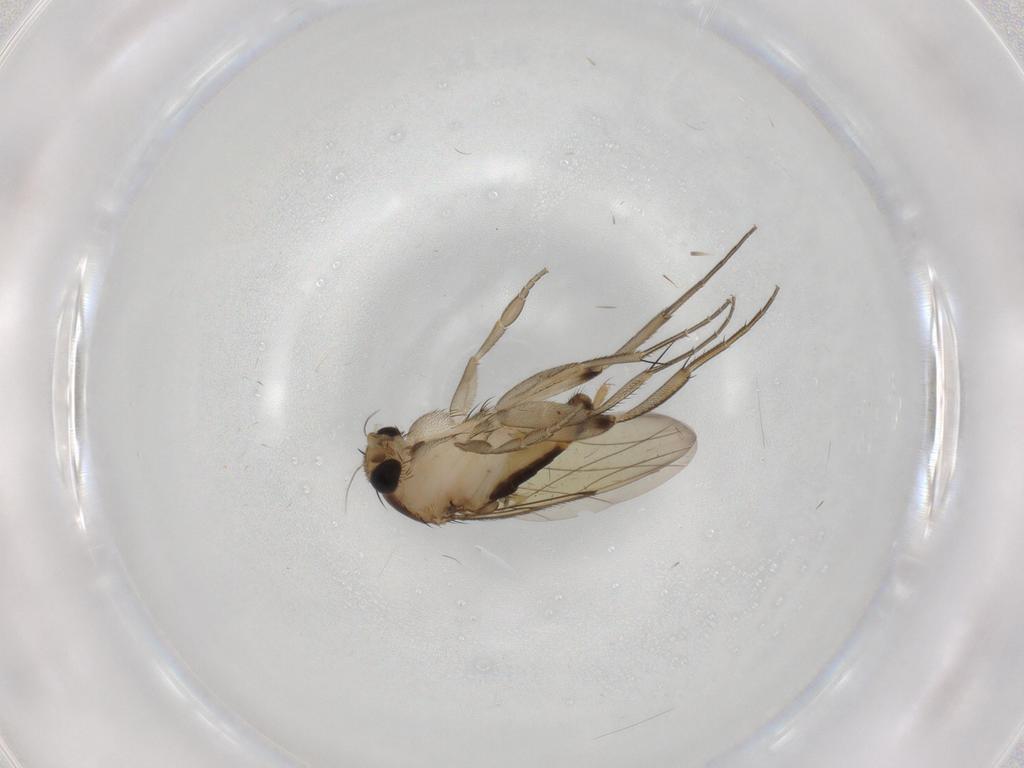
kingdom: Animalia
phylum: Arthropoda
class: Insecta
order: Diptera
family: Phoridae
